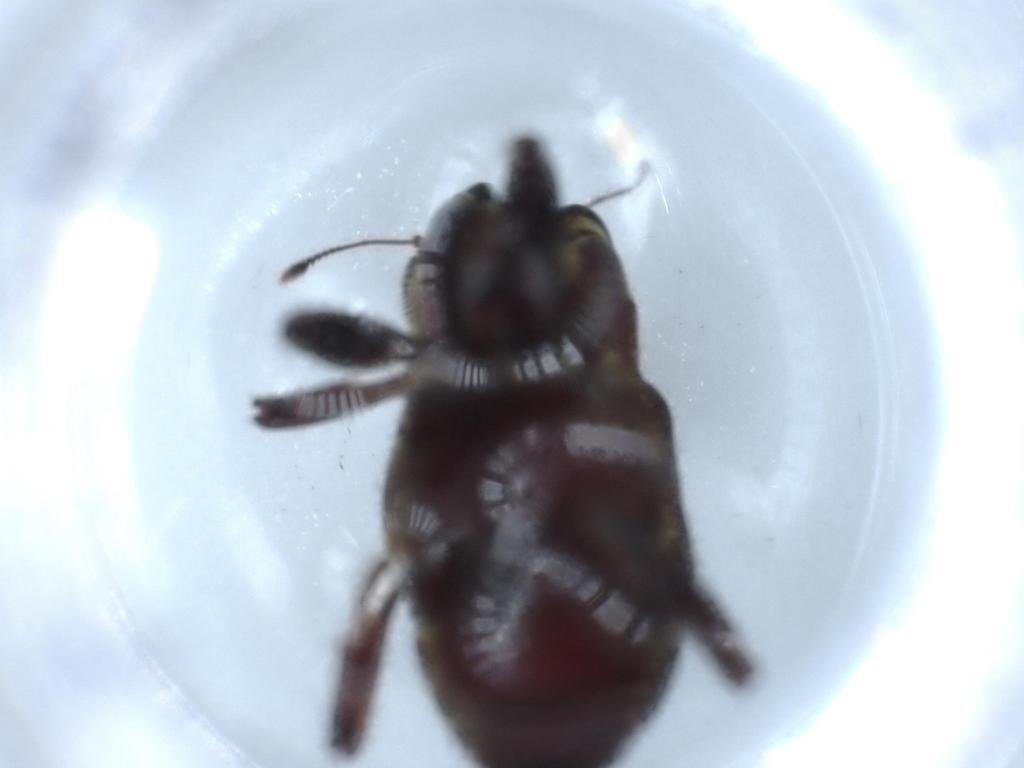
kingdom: Animalia
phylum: Arthropoda
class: Insecta
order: Coleoptera
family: Curculionidae
